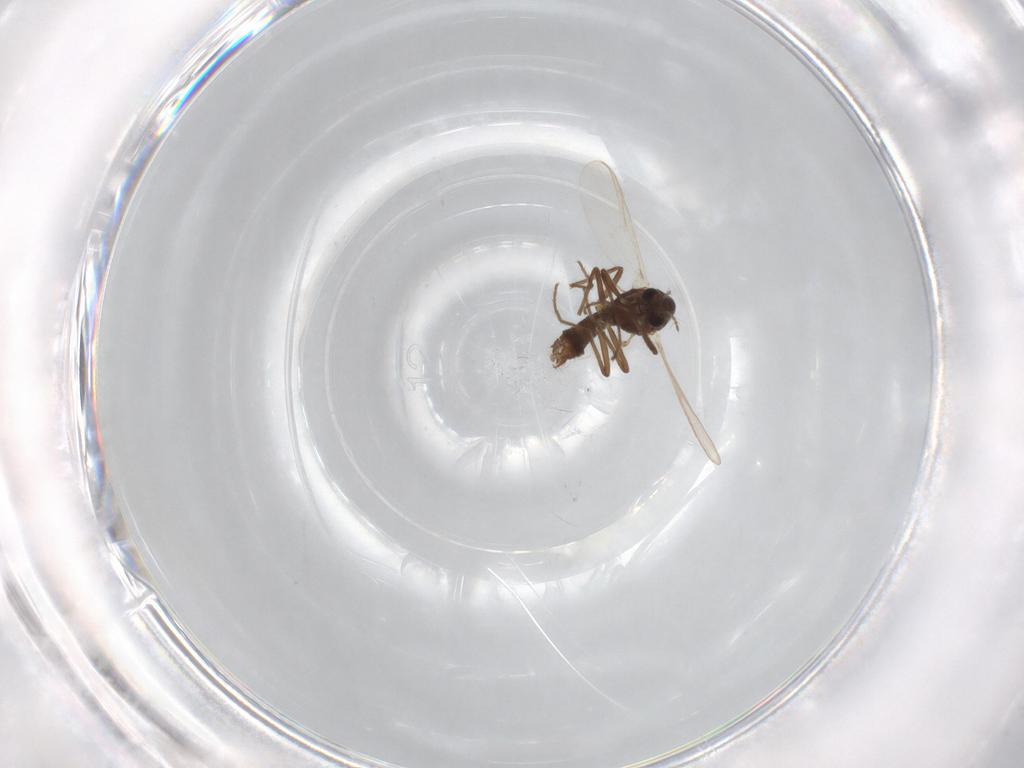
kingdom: Animalia
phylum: Arthropoda
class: Insecta
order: Diptera
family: Chironomidae
